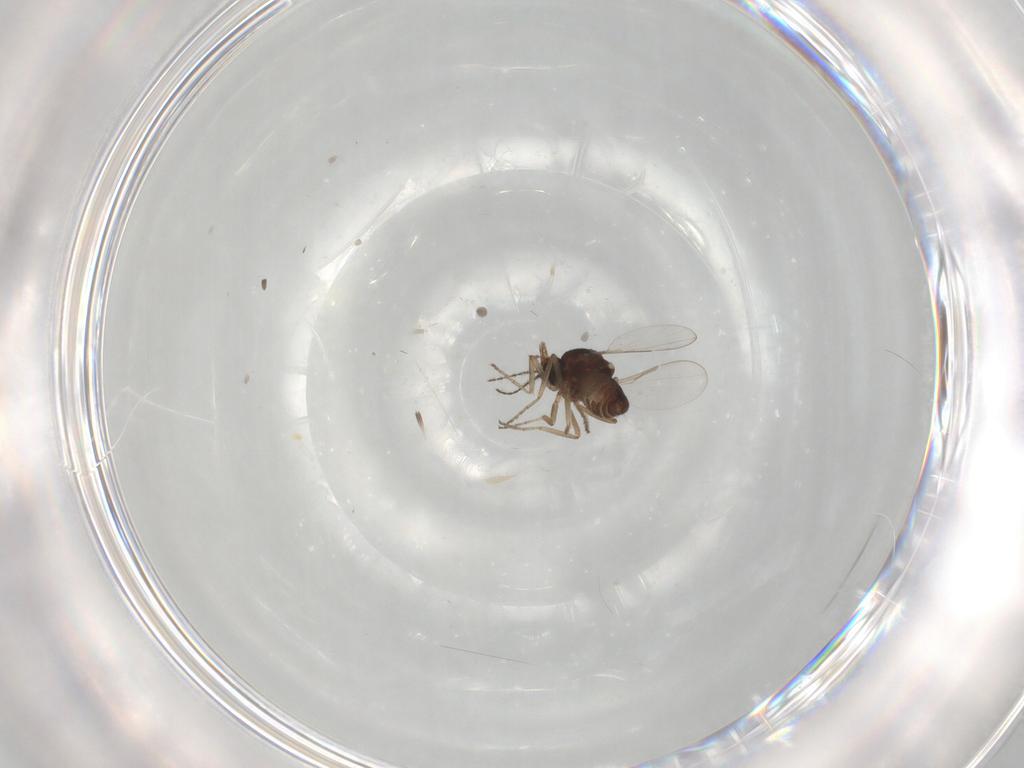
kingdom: Animalia
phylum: Arthropoda
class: Insecta
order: Diptera
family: Ceratopogonidae
